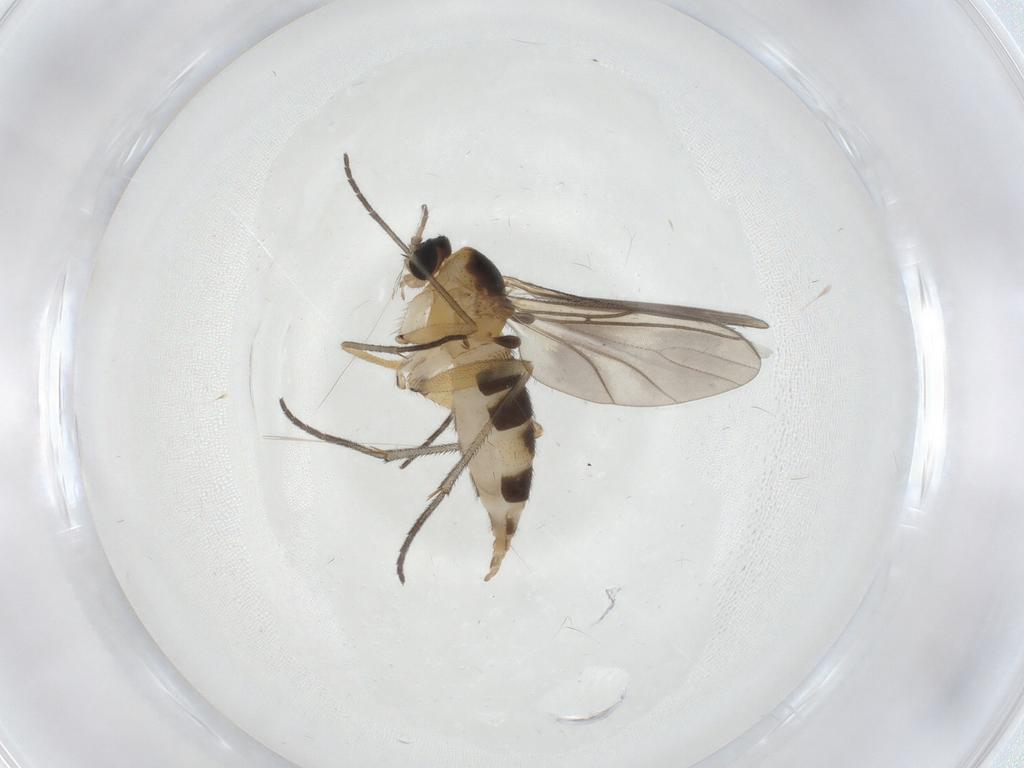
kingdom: Animalia
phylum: Arthropoda
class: Insecta
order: Diptera
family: Sciaridae
